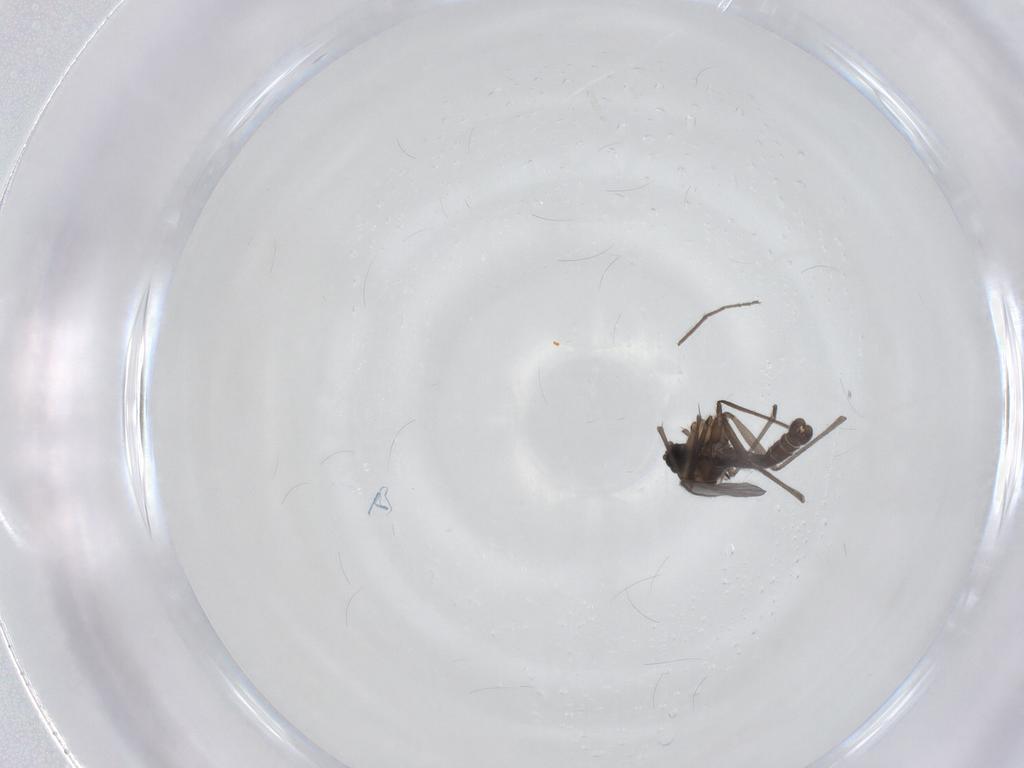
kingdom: Animalia
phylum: Arthropoda
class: Insecta
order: Diptera
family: Sciaridae
